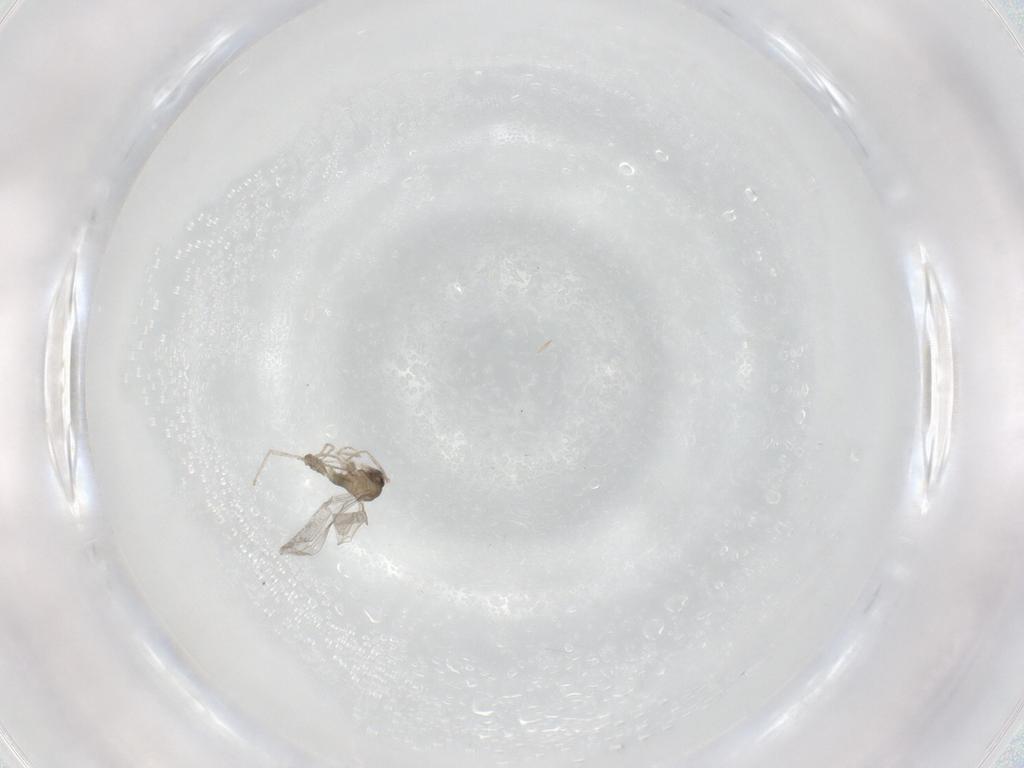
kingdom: Animalia
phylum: Arthropoda
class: Insecta
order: Diptera
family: Cecidomyiidae
